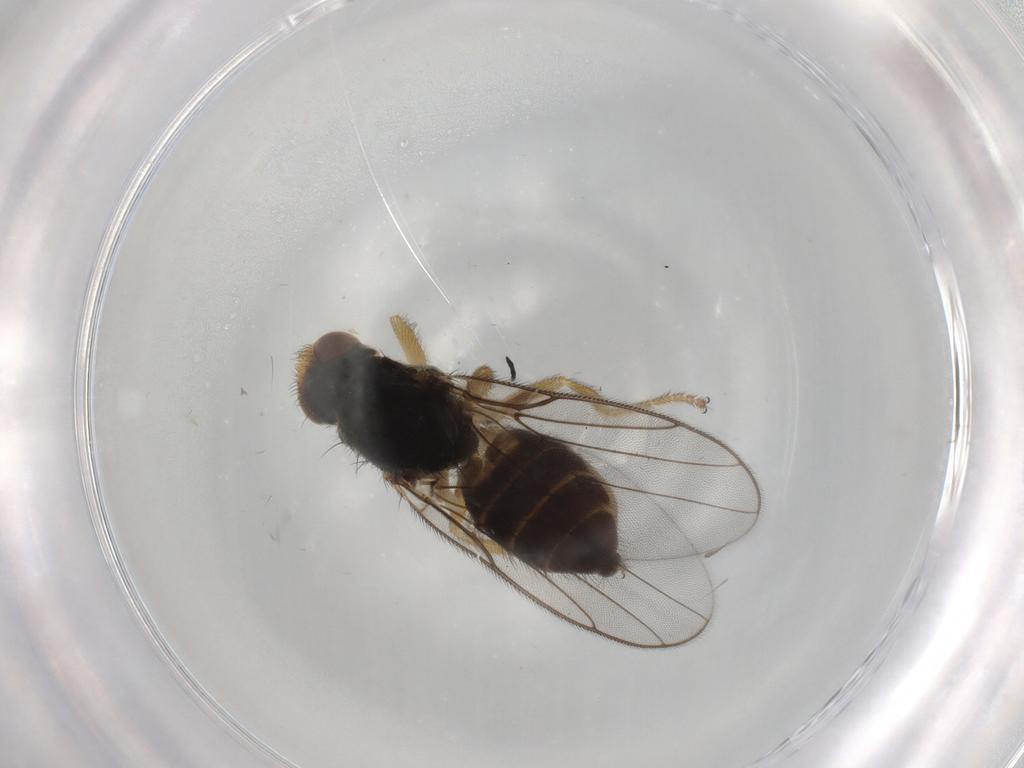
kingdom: Animalia
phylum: Arthropoda
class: Insecta
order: Diptera
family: Chloropidae
